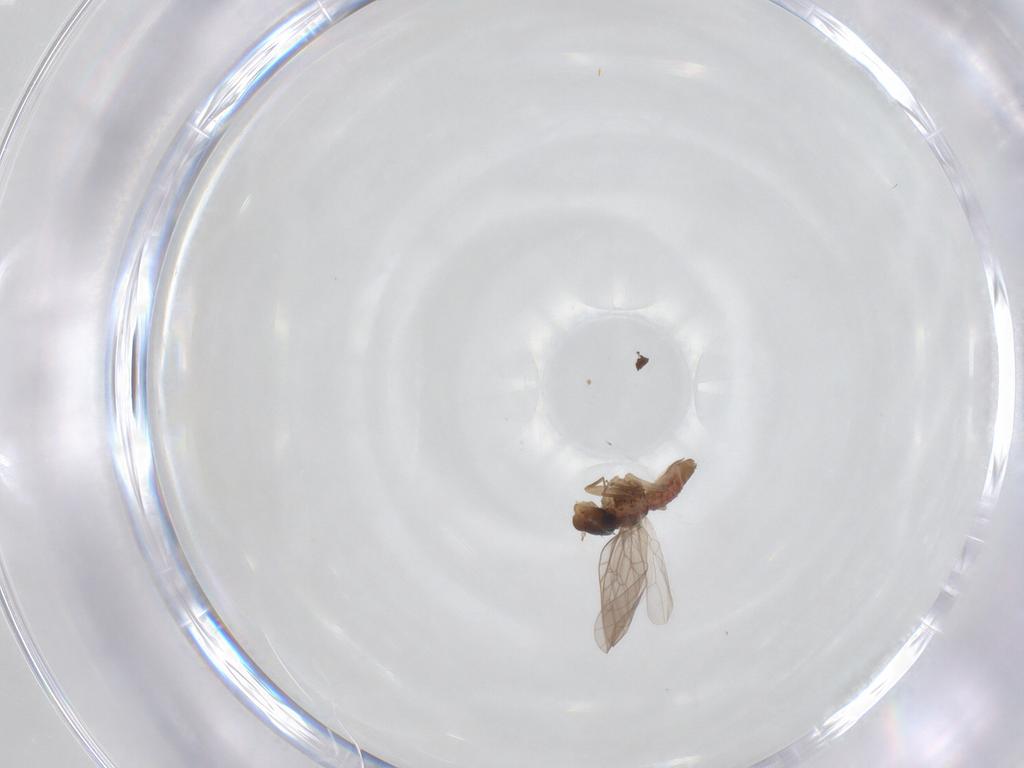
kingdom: Animalia
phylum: Arthropoda
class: Insecta
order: Psocodea
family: Lepidopsocidae
